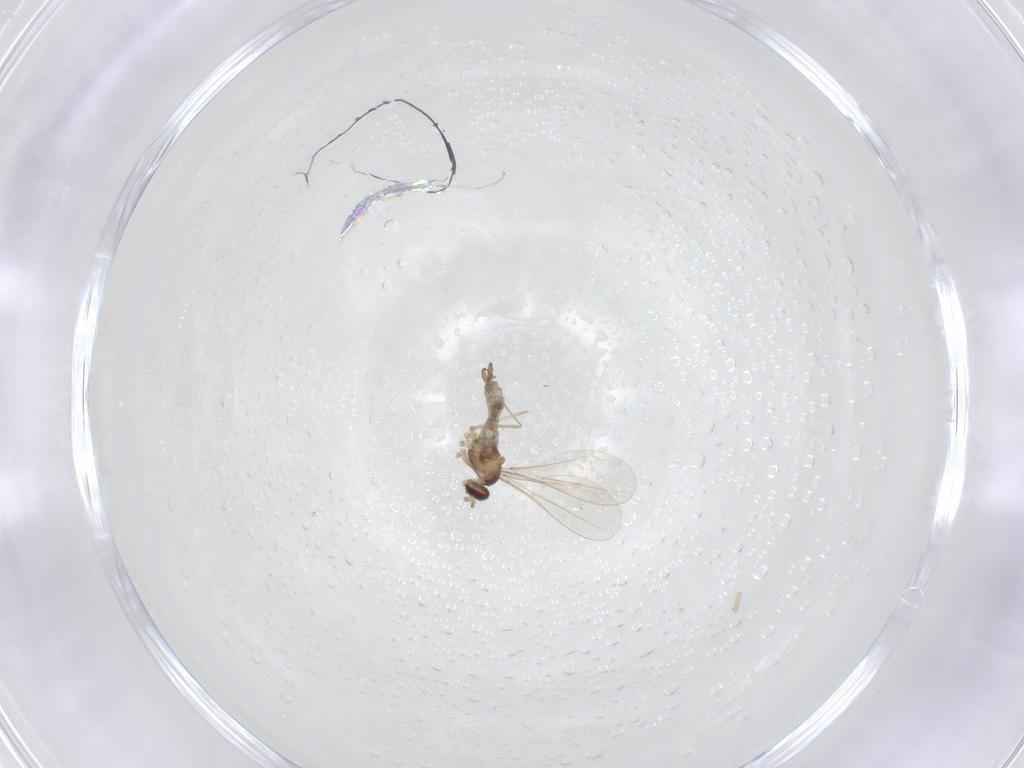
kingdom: Animalia
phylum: Arthropoda
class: Insecta
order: Diptera
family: Cecidomyiidae
